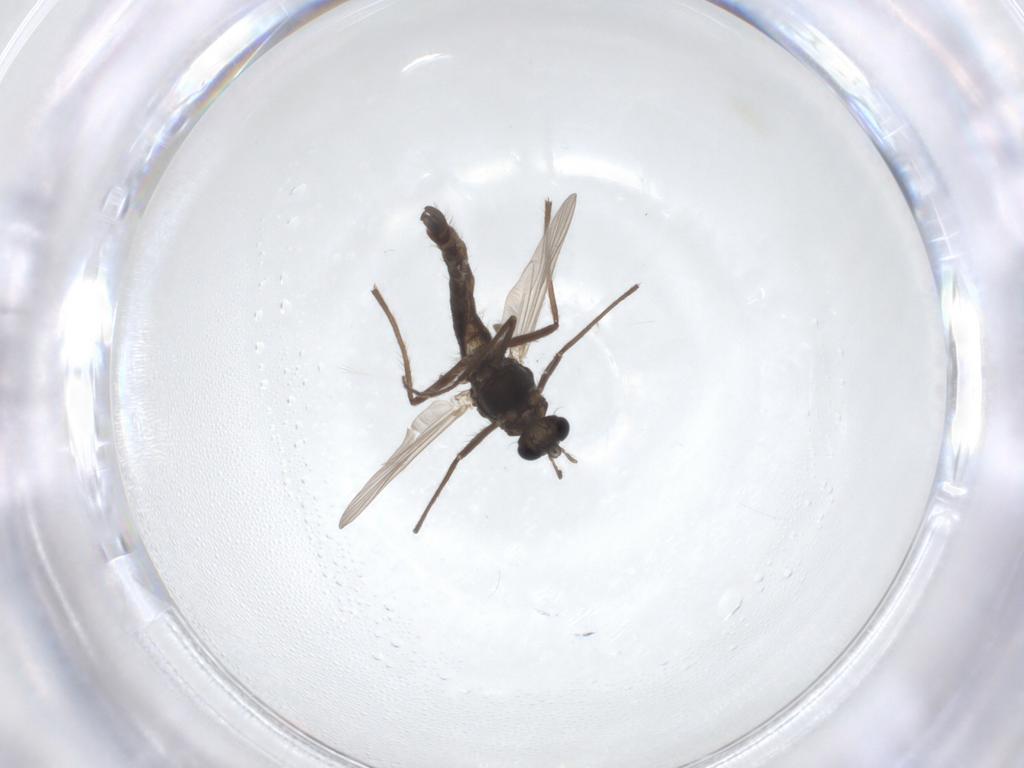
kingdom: Animalia
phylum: Arthropoda
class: Insecta
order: Diptera
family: Chironomidae
